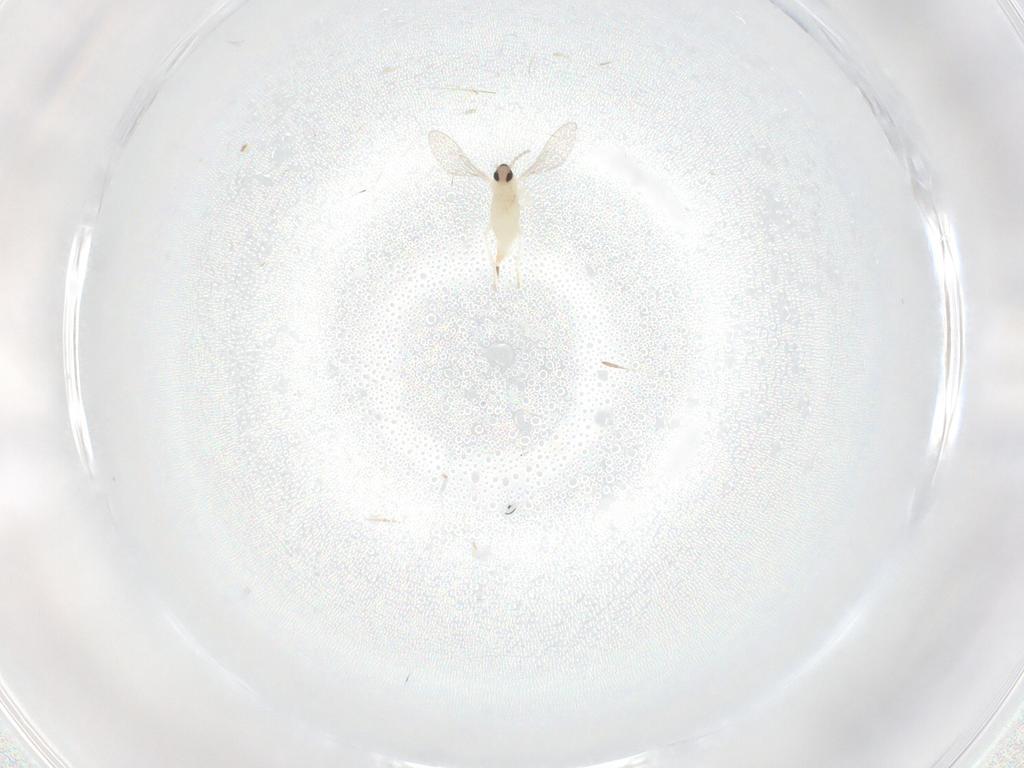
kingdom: Animalia
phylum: Arthropoda
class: Insecta
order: Diptera
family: Cecidomyiidae
